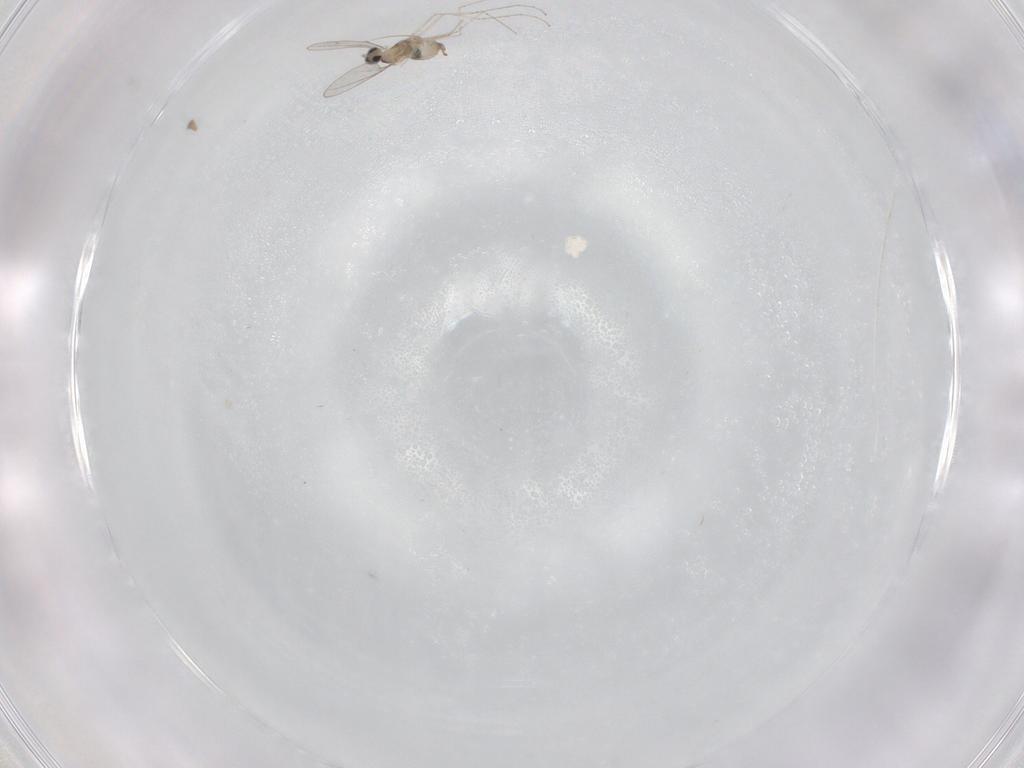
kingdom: Animalia
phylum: Arthropoda
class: Insecta
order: Diptera
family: Cecidomyiidae
